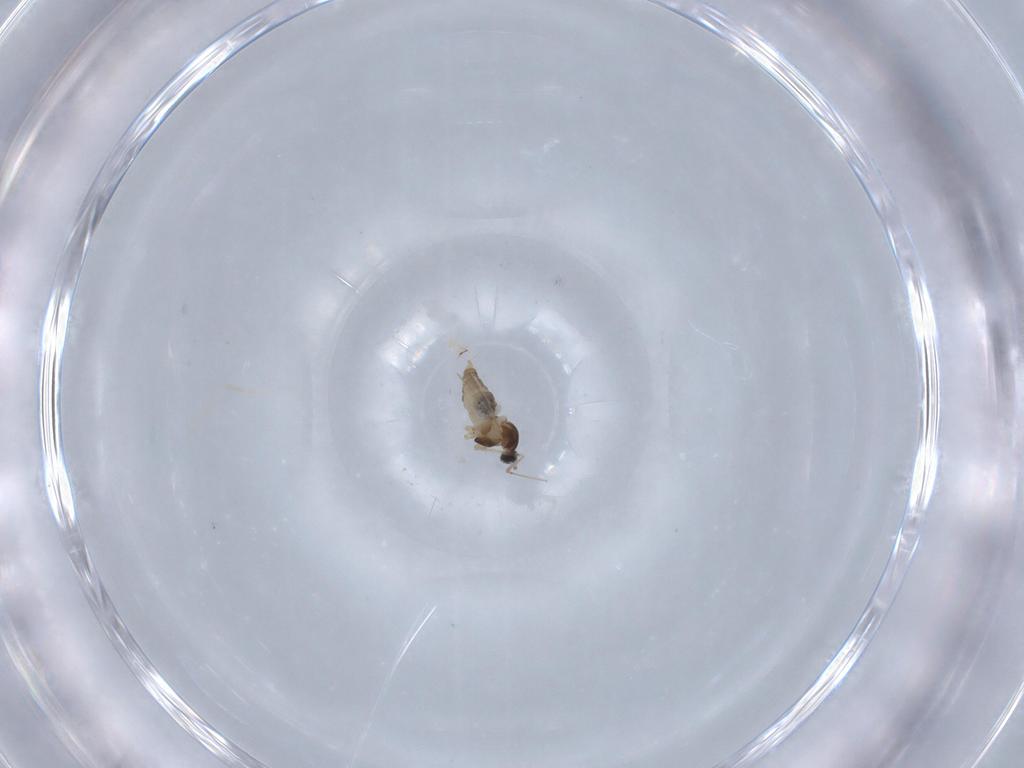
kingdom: Animalia
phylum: Arthropoda
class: Insecta
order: Diptera
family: Cecidomyiidae
